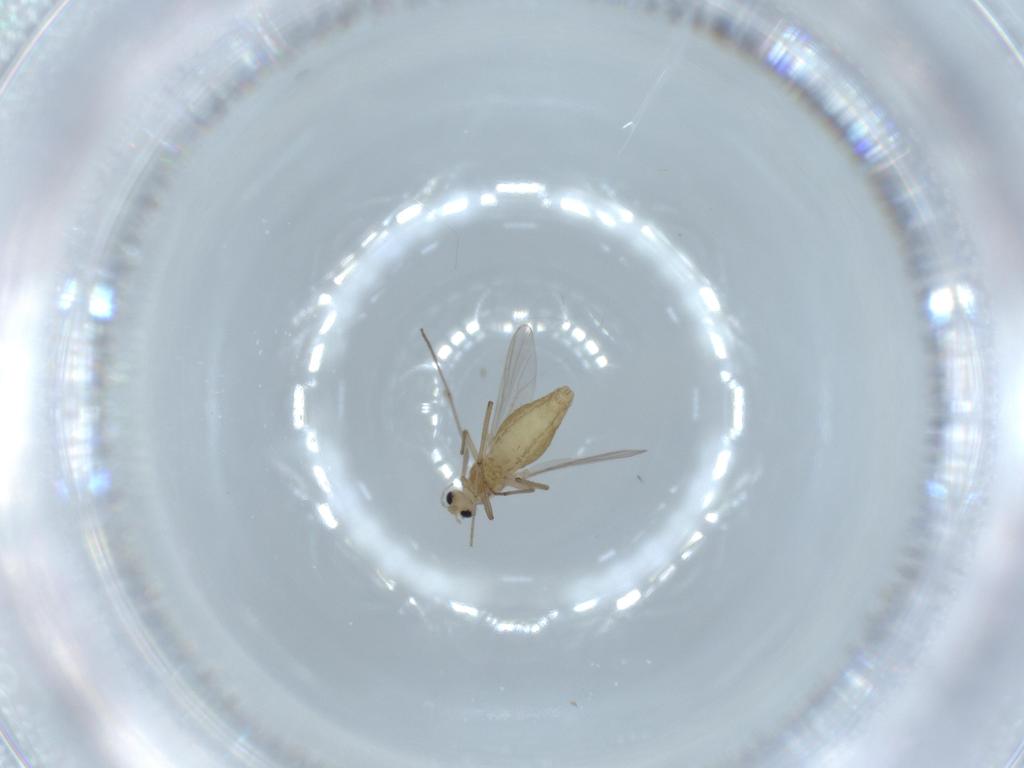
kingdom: Animalia
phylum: Arthropoda
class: Insecta
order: Diptera
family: Chironomidae
